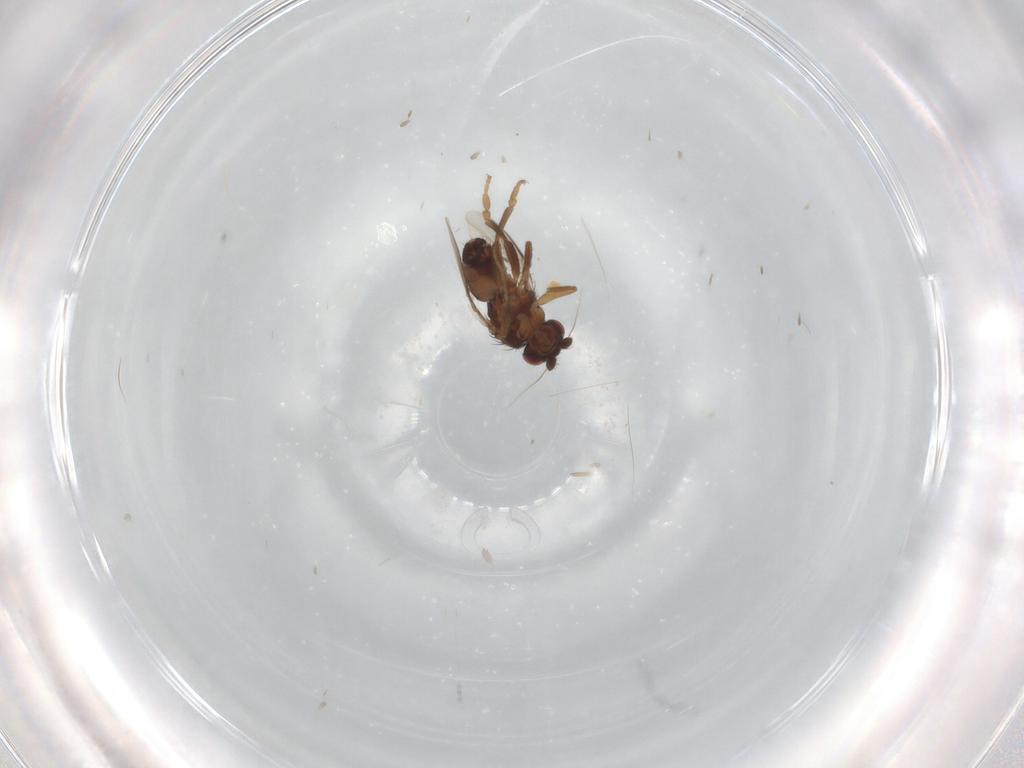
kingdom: Animalia
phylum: Arthropoda
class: Insecta
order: Diptera
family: Sphaeroceridae
